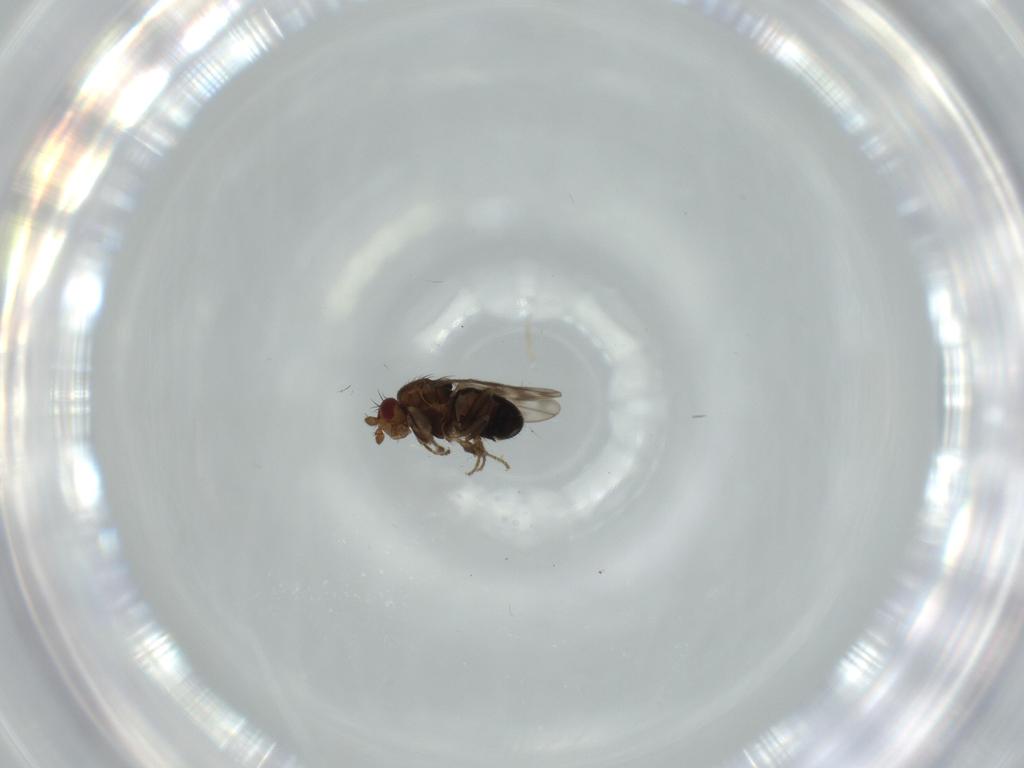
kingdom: Animalia
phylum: Arthropoda
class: Insecta
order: Diptera
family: Sphaeroceridae
